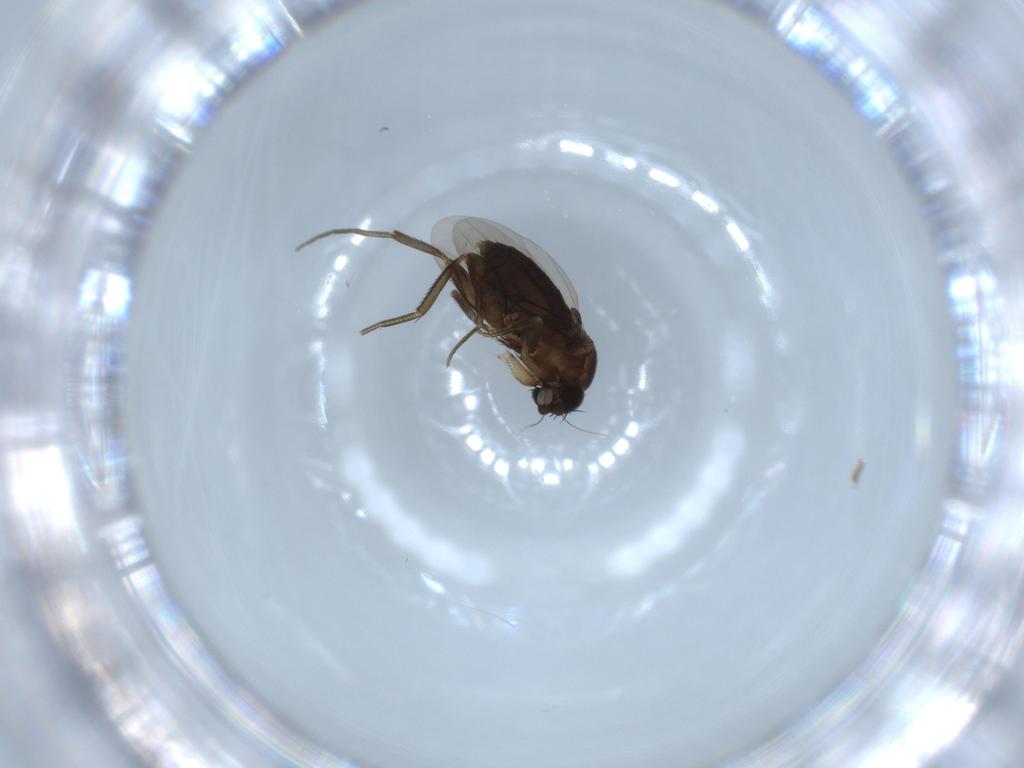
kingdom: Animalia
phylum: Arthropoda
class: Insecta
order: Diptera
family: Phoridae
